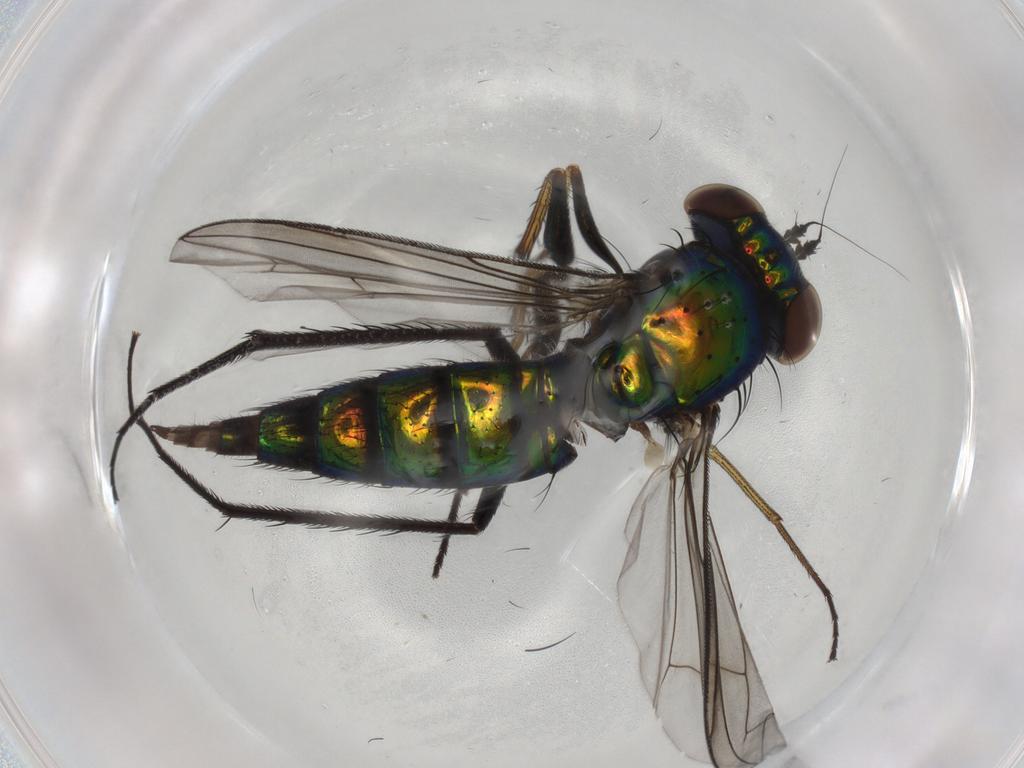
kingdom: Animalia
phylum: Arthropoda
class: Insecta
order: Diptera
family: Dolichopodidae
